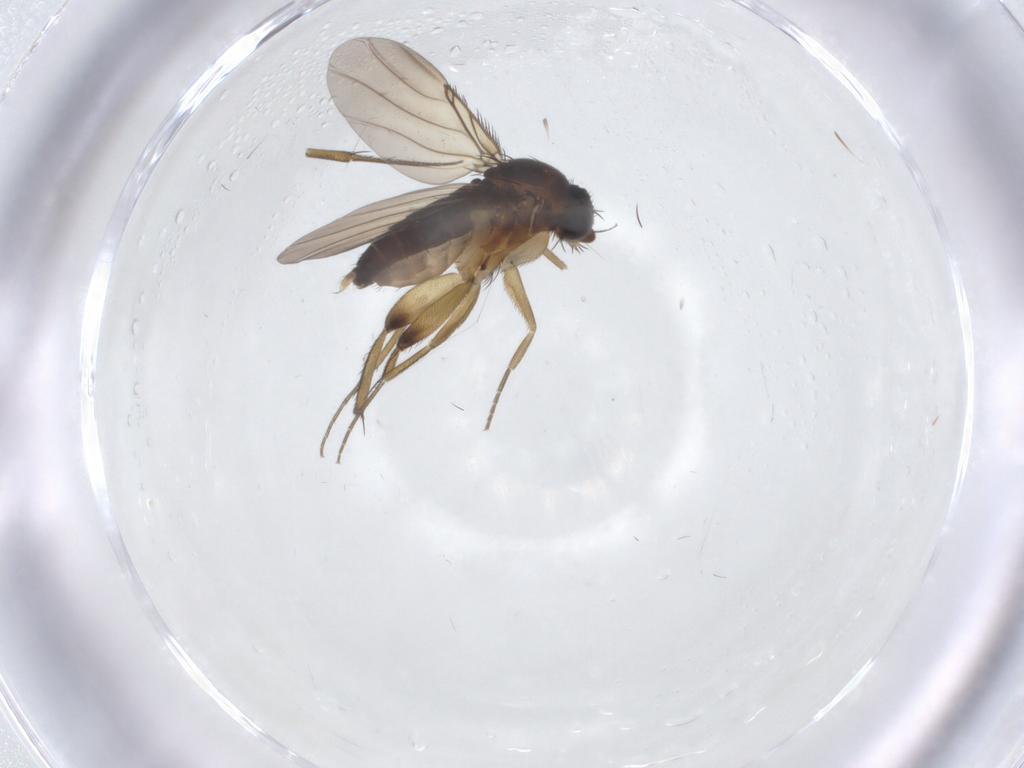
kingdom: Animalia
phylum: Arthropoda
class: Insecta
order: Diptera
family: Phoridae
